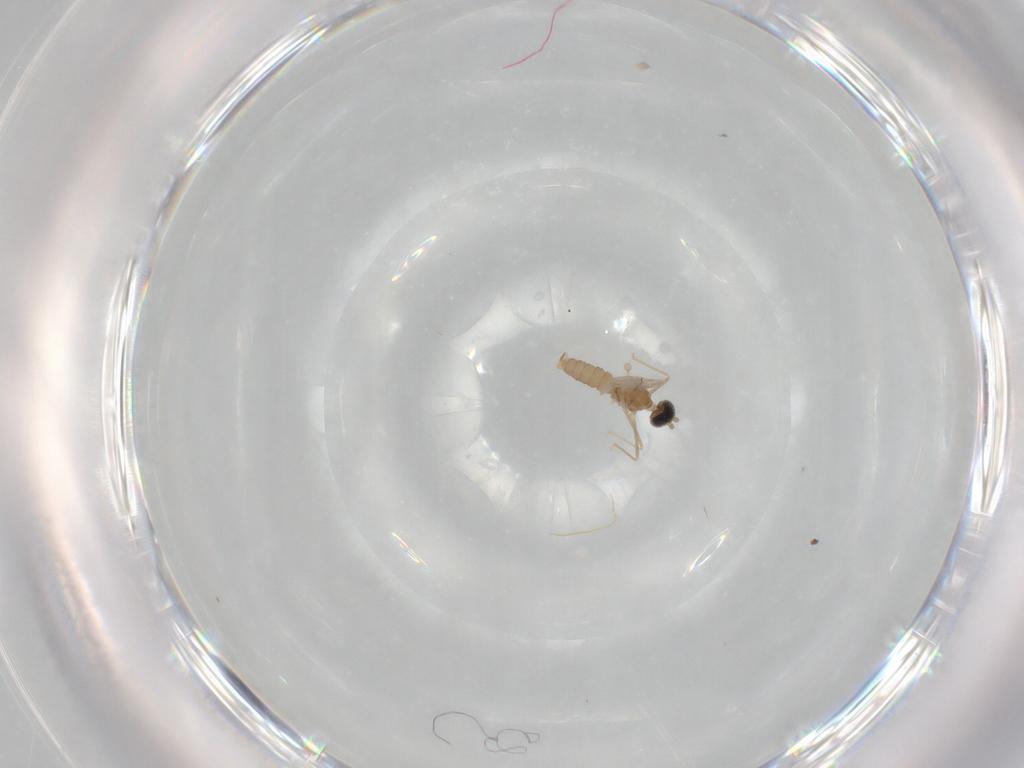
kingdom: Animalia
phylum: Arthropoda
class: Insecta
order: Diptera
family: Cecidomyiidae
